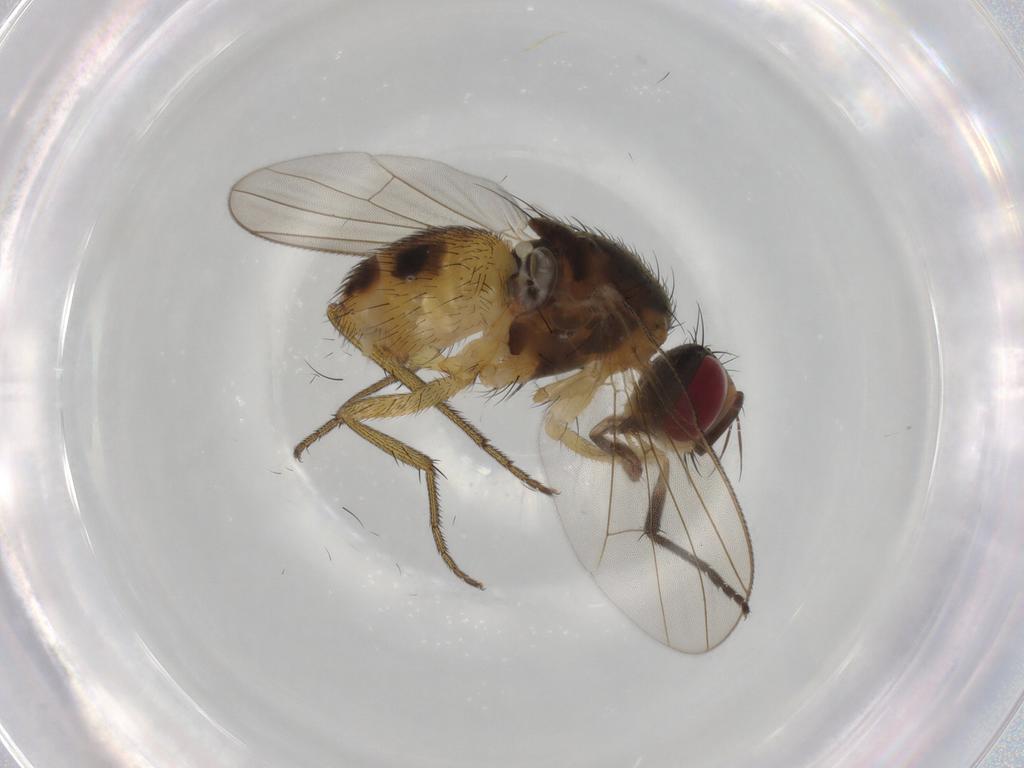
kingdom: Animalia
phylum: Arthropoda
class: Insecta
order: Diptera
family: Muscidae
